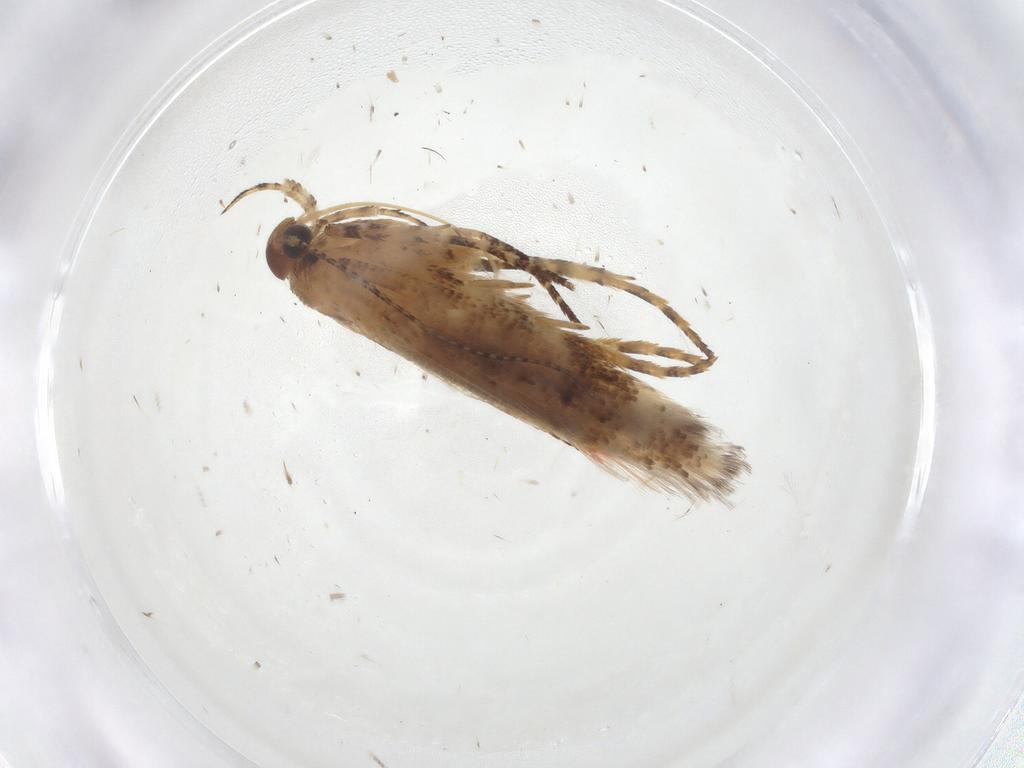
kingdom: Animalia
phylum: Arthropoda
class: Insecta
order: Lepidoptera
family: Gelechiidae
